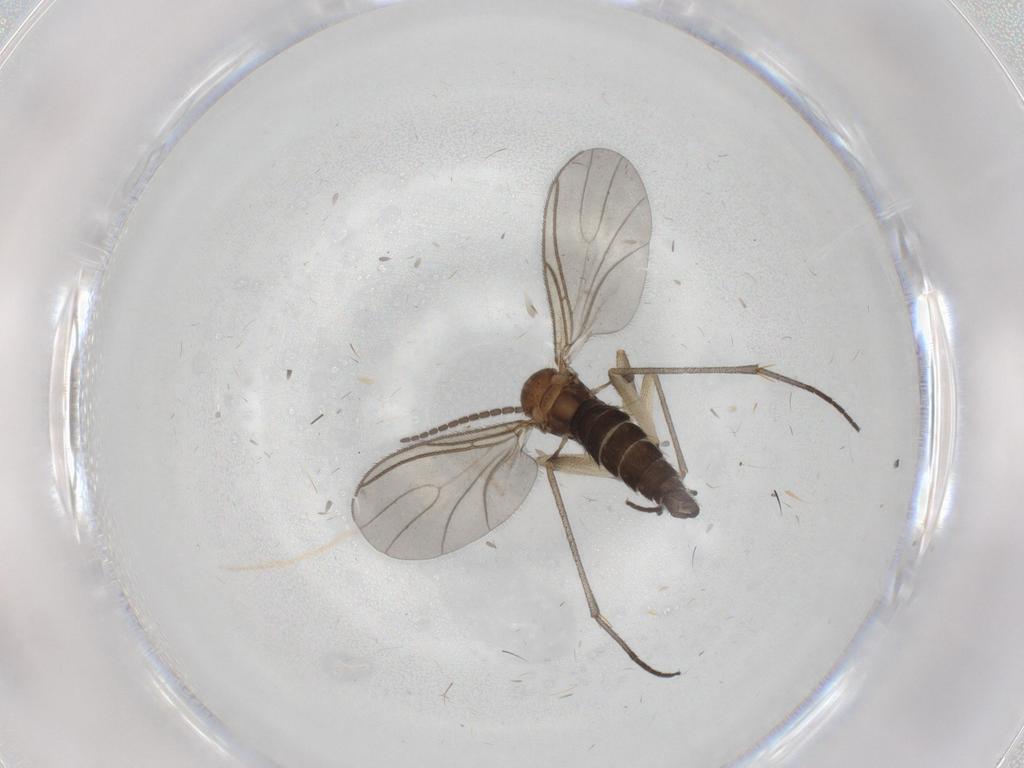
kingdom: Animalia
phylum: Arthropoda
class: Insecta
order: Diptera
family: Sciaridae
